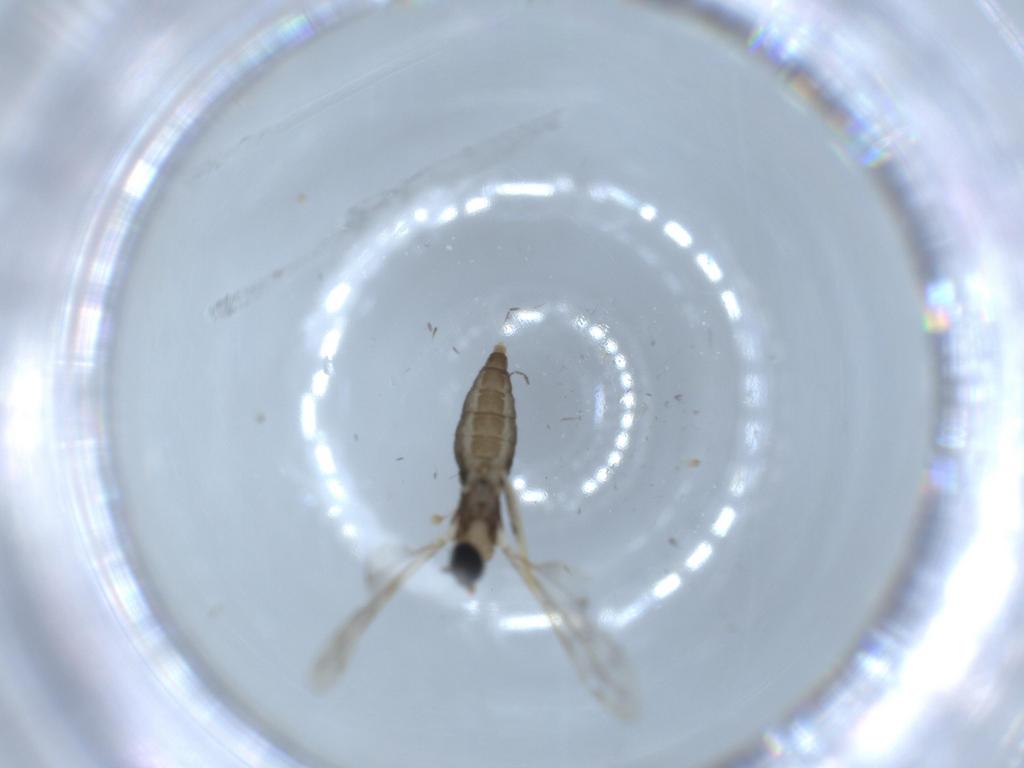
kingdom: Animalia
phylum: Arthropoda
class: Insecta
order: Diptera
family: Cecidomyiidae
